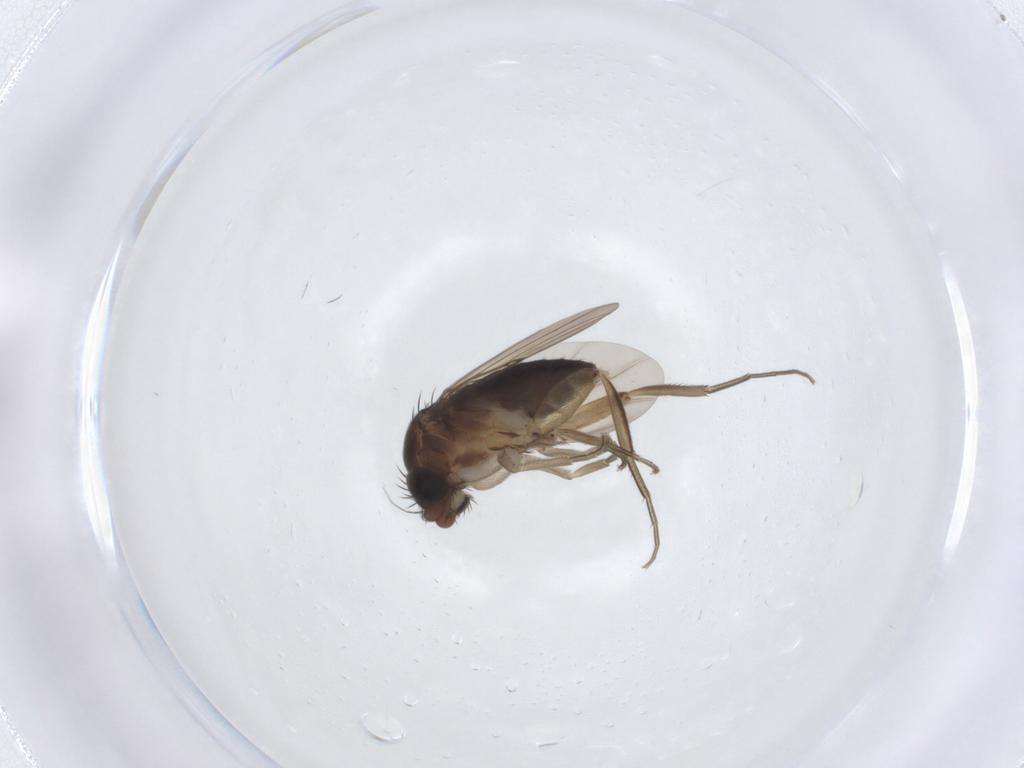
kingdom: Animalia
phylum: Arthropoda
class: Insecta
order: Diptera
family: Phoridae
